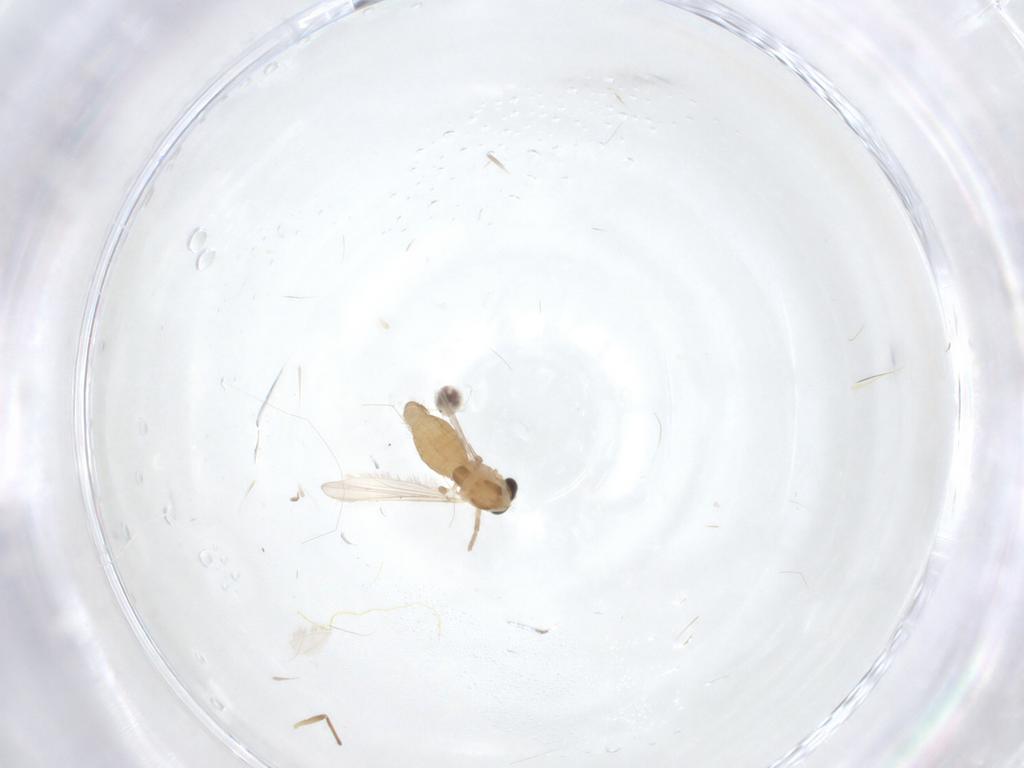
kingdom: Animalia
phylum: Arthropoda
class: Insecta
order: Diptera
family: Chironomidae
